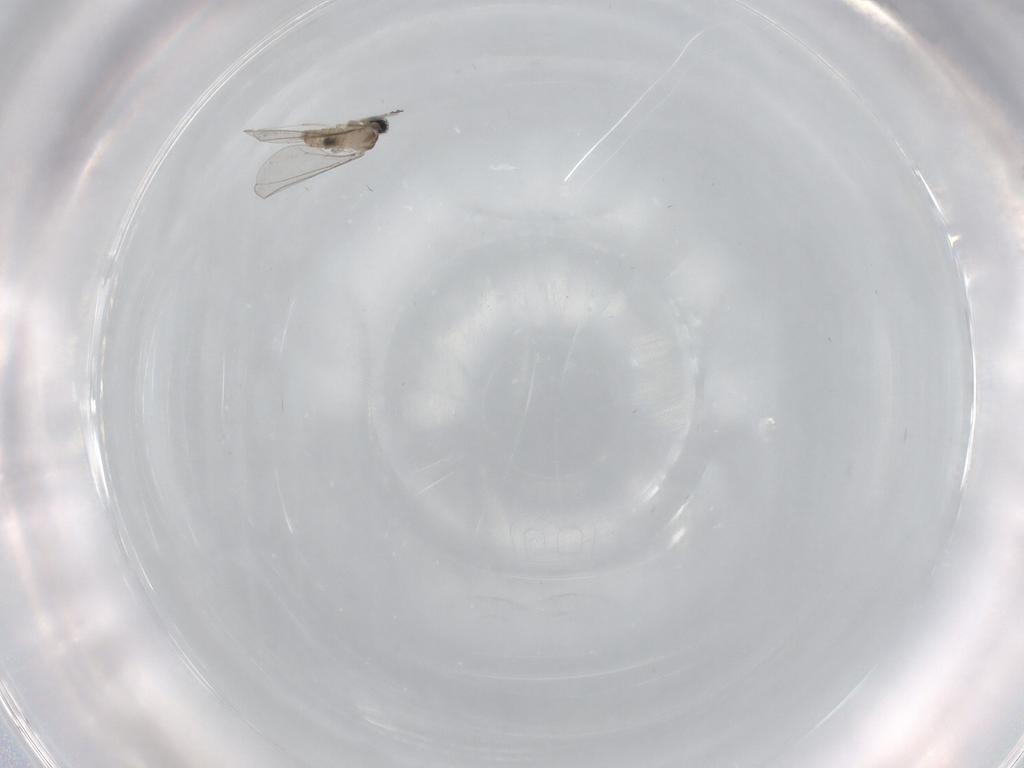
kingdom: Animalia
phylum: Arthropoda
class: Insecta
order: Diptera
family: Cecidomyiidae
